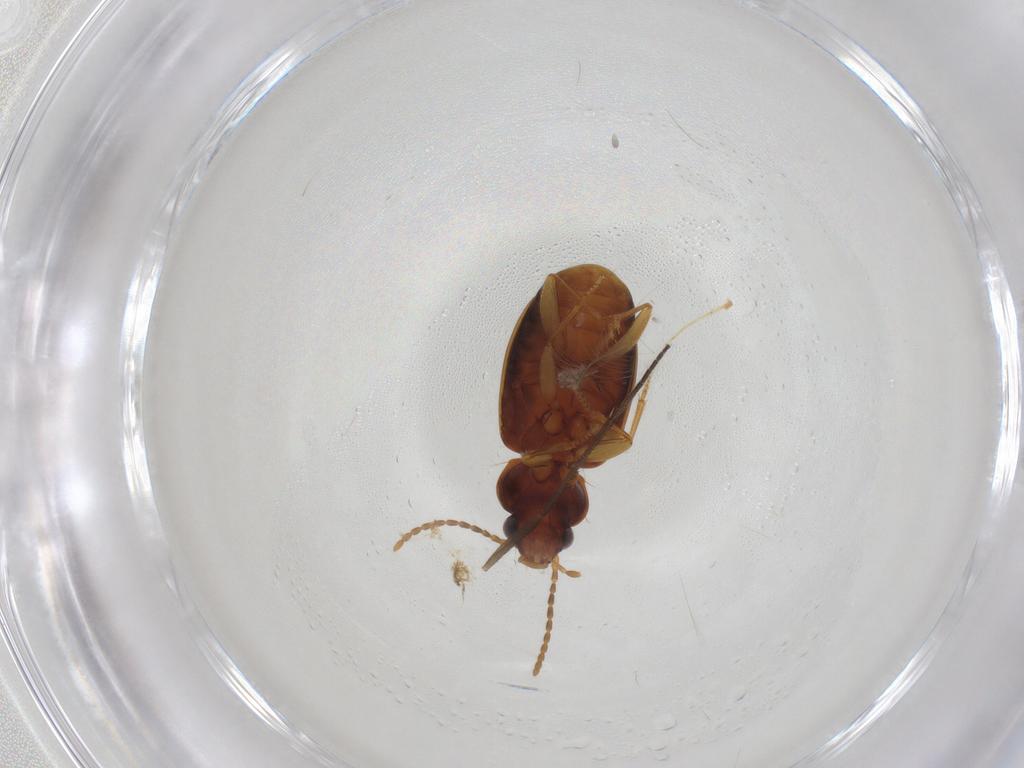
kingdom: Animalia
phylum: Arthropoda
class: Insecta
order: Coleoptera
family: Carabidae
